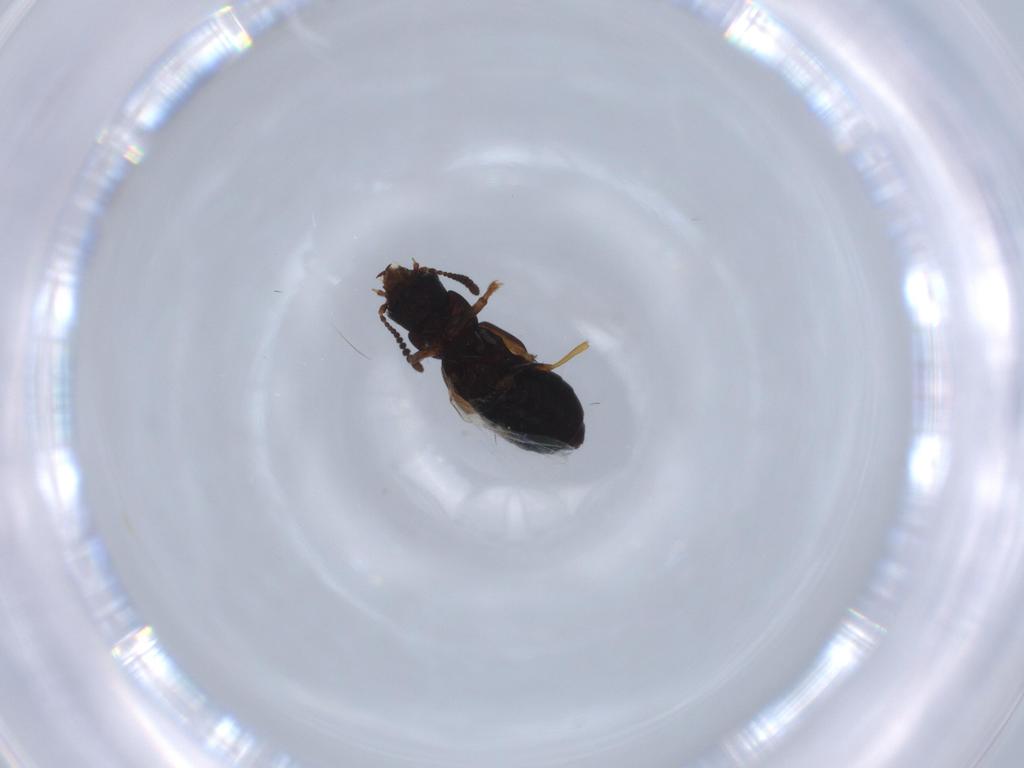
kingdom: Animalia
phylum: Arthropoda
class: Insecta
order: Coleoptera
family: Staphylinidae
